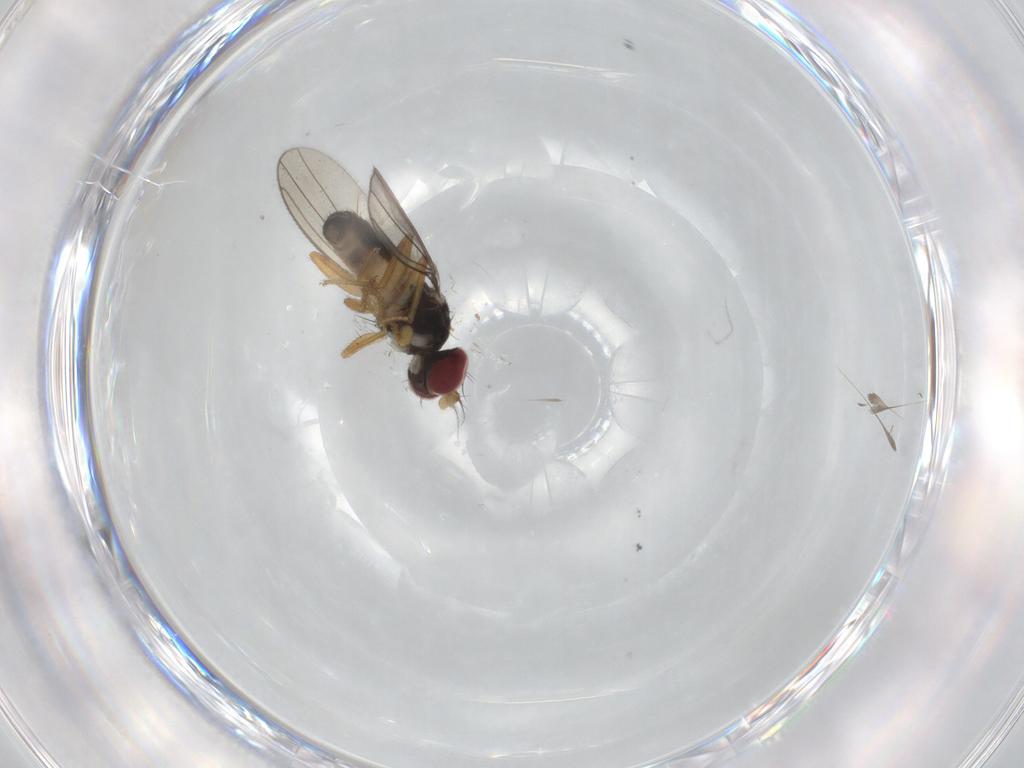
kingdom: Animalia
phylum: Arthropoda
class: Insecta
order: Diptera
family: Anthomyzidae
